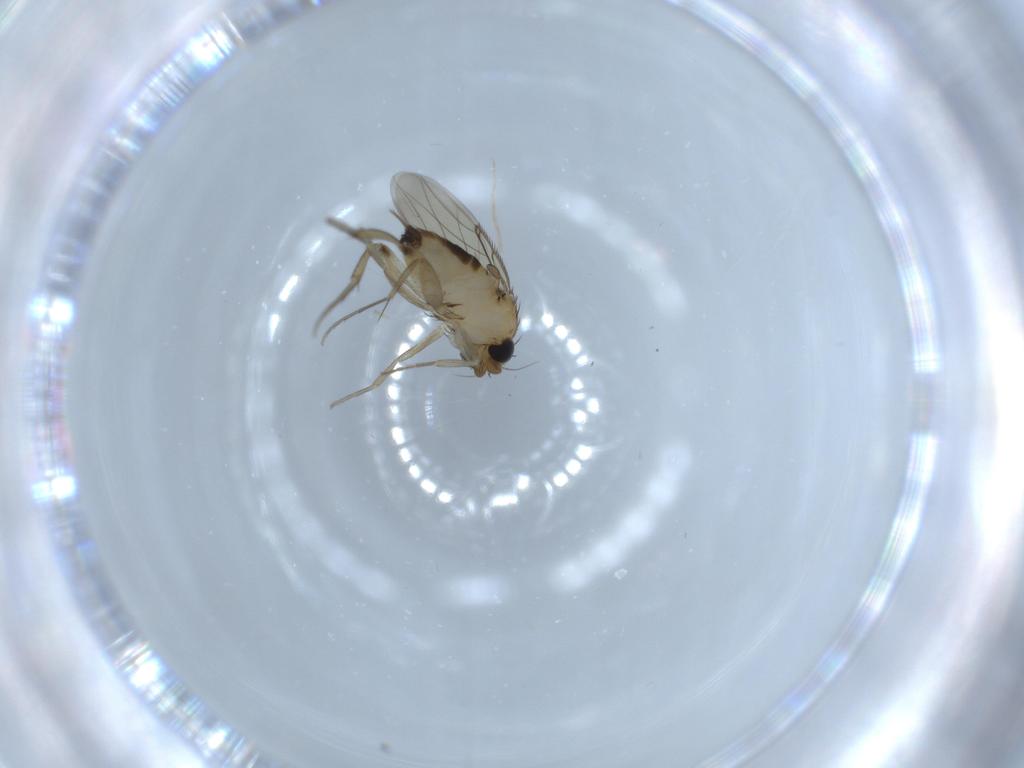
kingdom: Animalia
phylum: Arthropoda
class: Insecta
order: Diptera
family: Phoridae
